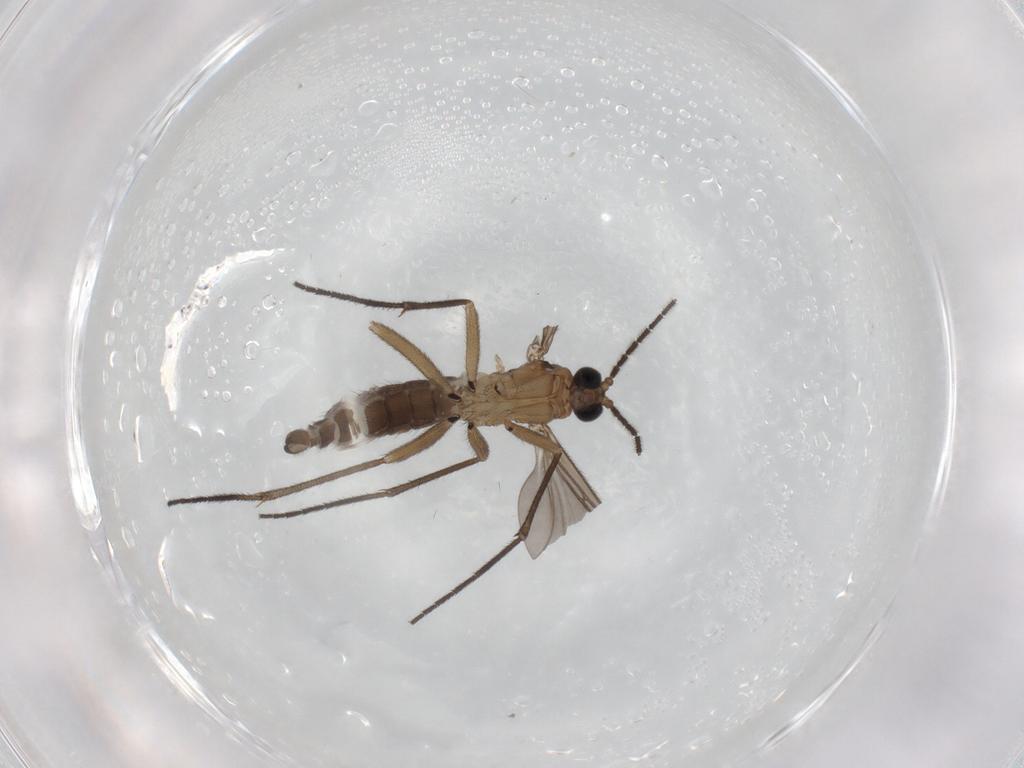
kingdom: Animalia
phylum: Arthropoda
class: Insecta
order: Diptera
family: Sciaridae
